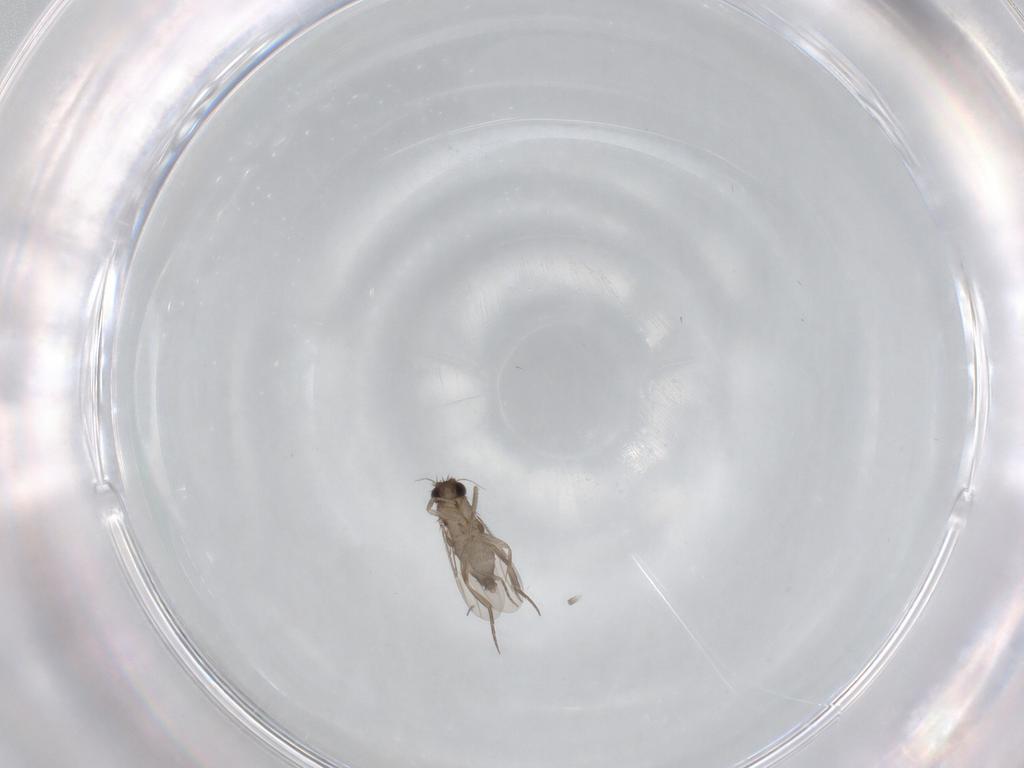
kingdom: Animalia
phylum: Arthropoda
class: Insecta
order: Diptera
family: Phoridae
